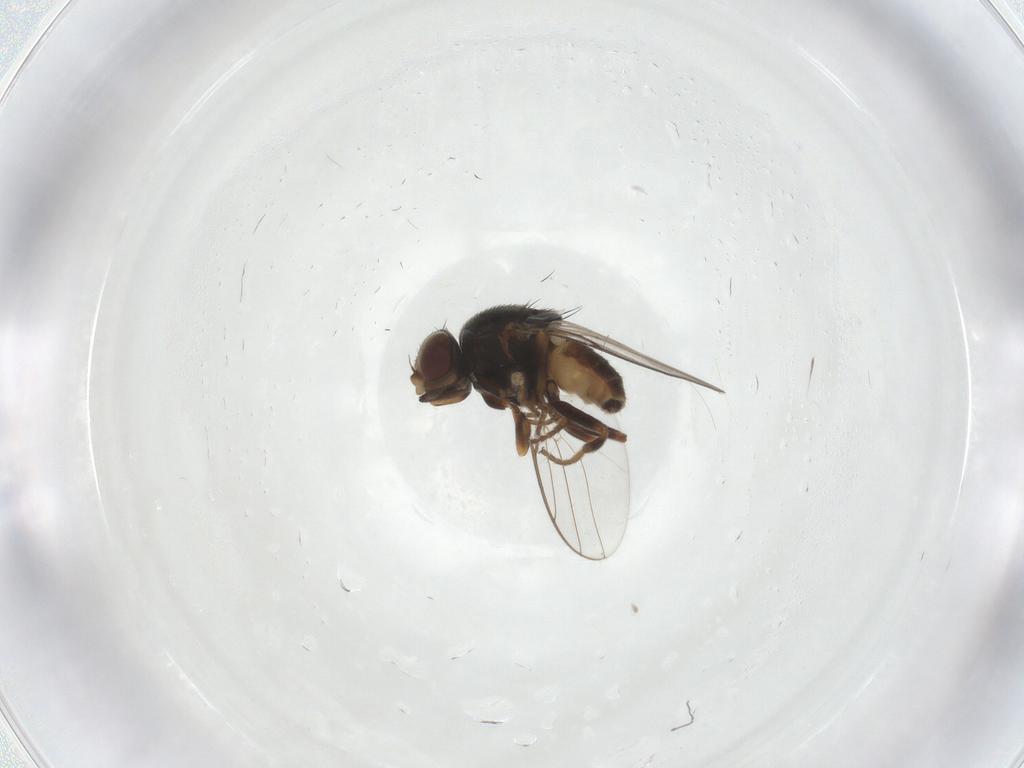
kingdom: Animalia
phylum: Arthropoda
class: Insecta
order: Diptera
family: Chloropidae
